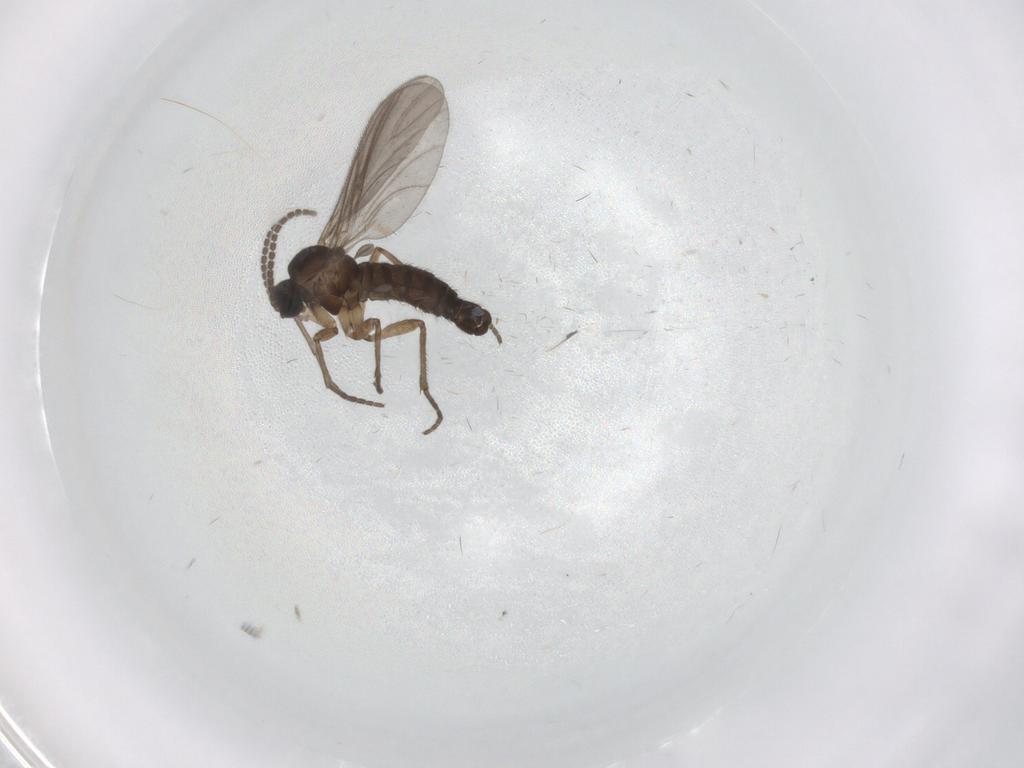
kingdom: Animalia
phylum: Arthropoda
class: Insecta
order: Diptera
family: Sciaridae
